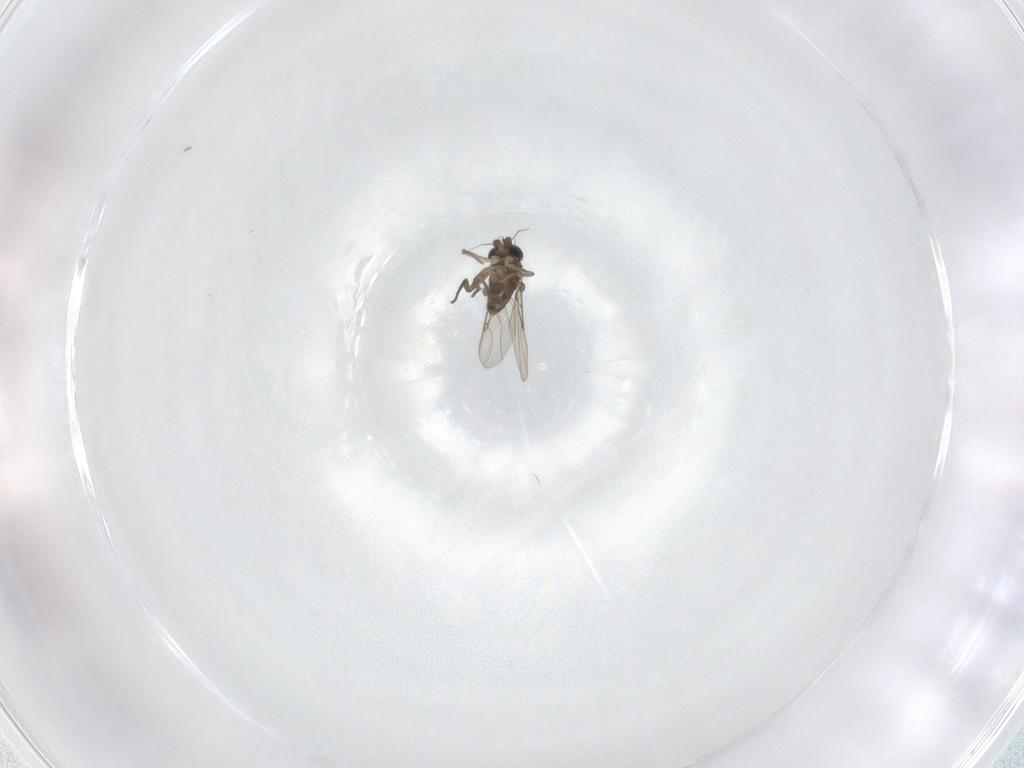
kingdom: Animalia
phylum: Arthropoda
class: Insecta
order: Diptera
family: Phoridae
